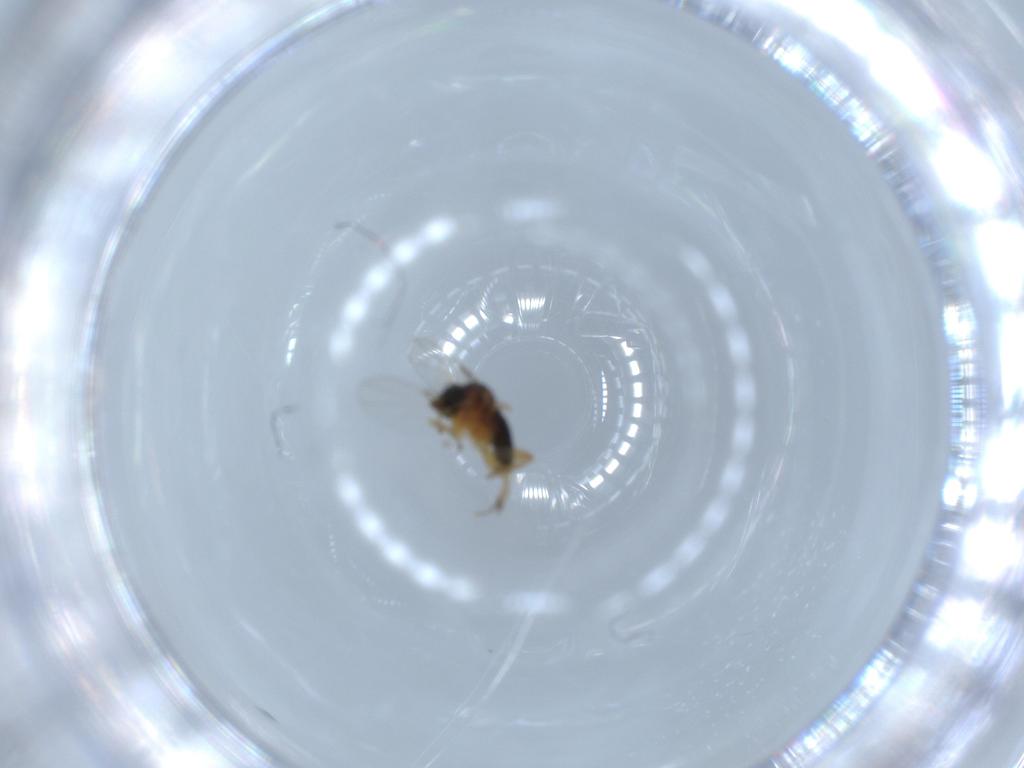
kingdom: Animalia
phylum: Arthropoda
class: Insecta
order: Diptera
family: Phoridae
